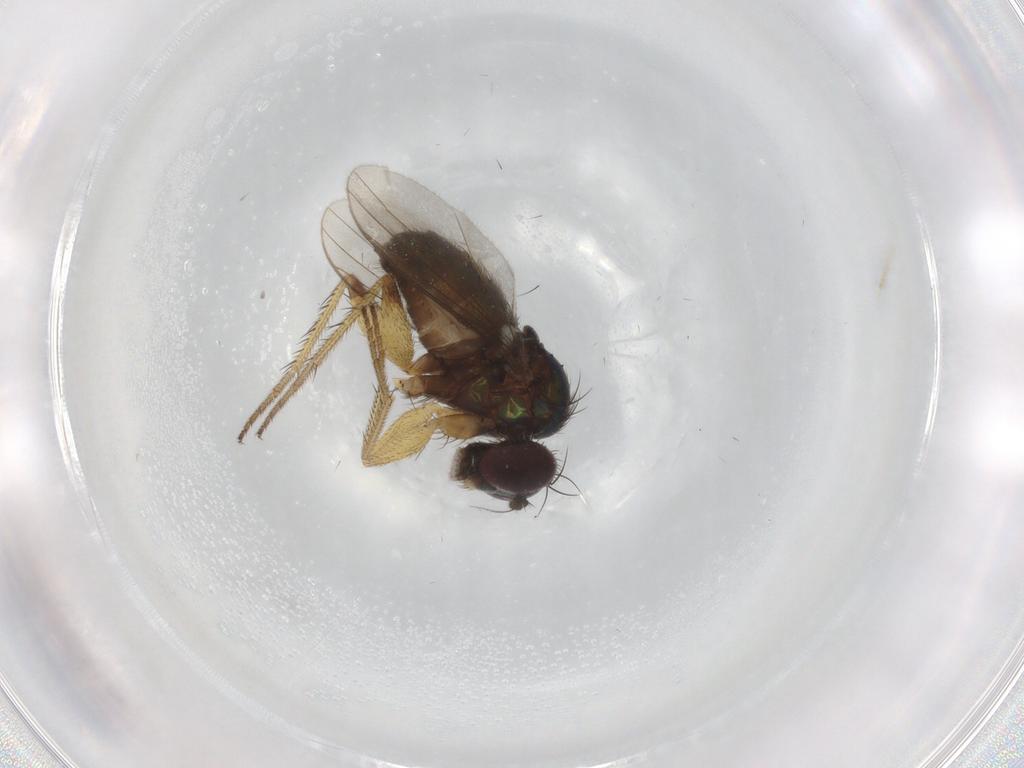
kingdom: Animalia
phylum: Arthropoda
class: Insecta
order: Diptera
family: Dolichopodidae
